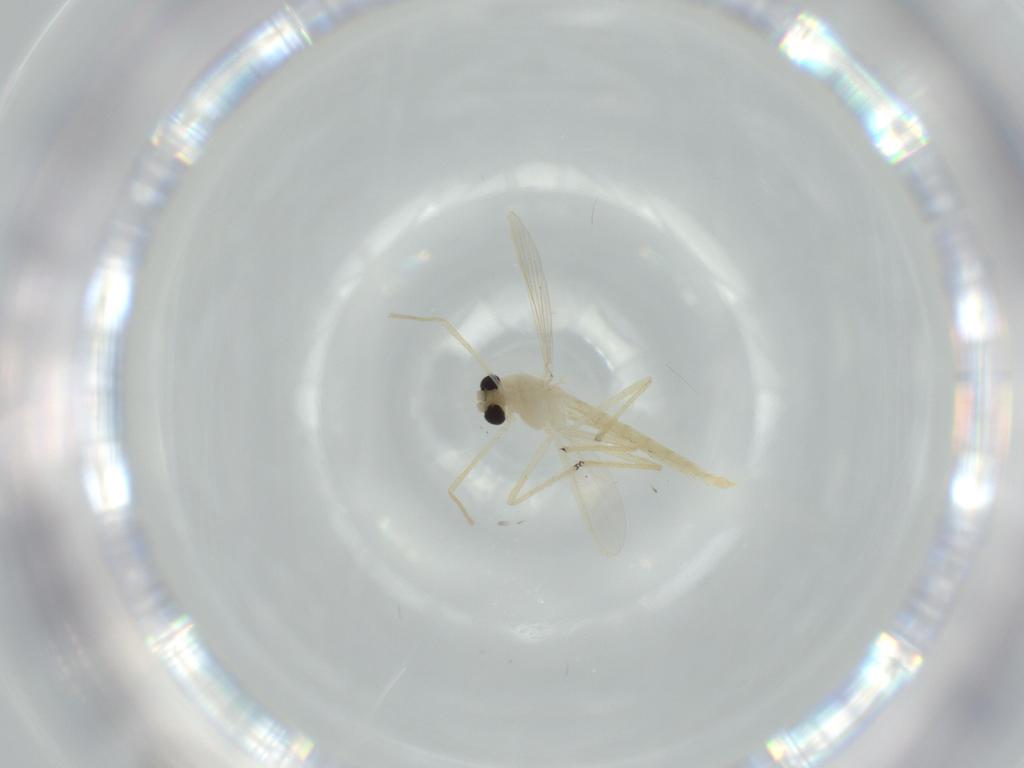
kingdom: Animalia
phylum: Arthropoda
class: Insecta
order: Diptera
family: Chironomidae
